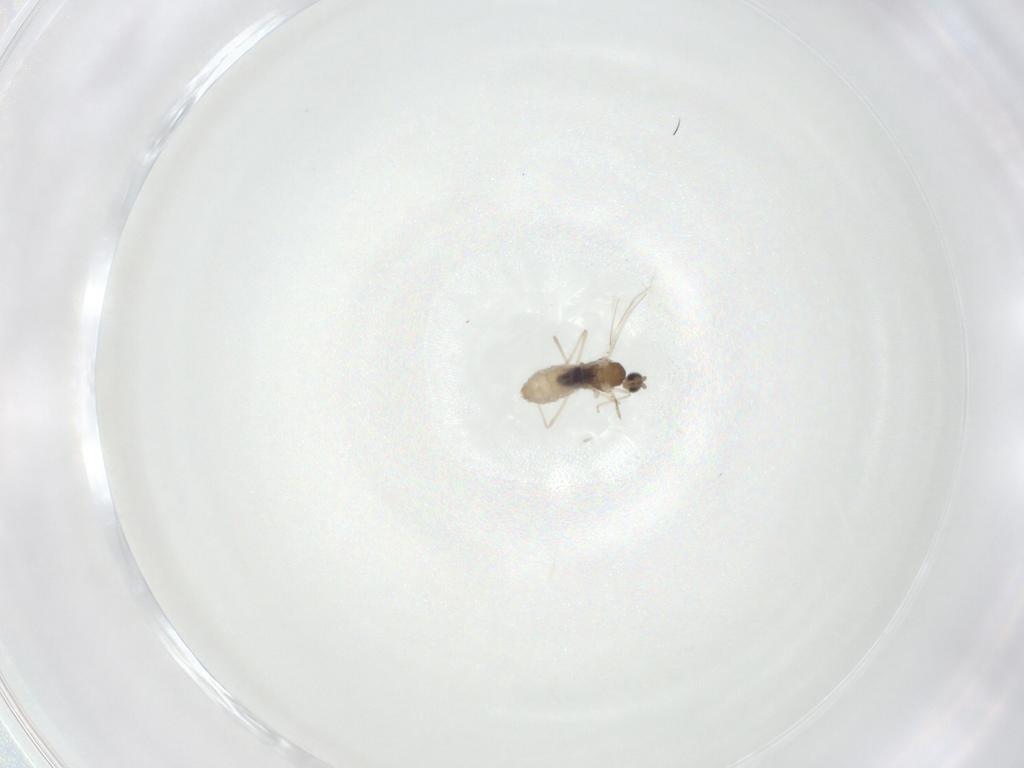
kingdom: Animalia
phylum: Arthropoda
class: Insecta
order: Diptera
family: Cecidomyiidae
